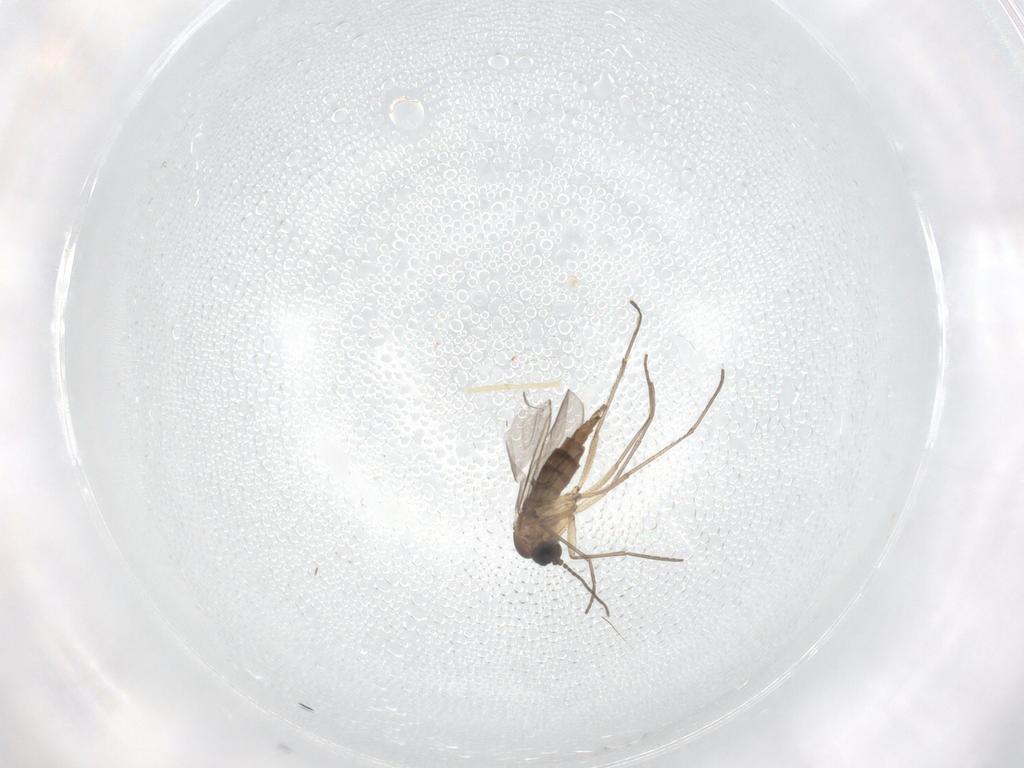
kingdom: Animalia
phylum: Arthropoda
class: Insecta
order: Diptera
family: Sciaridae
